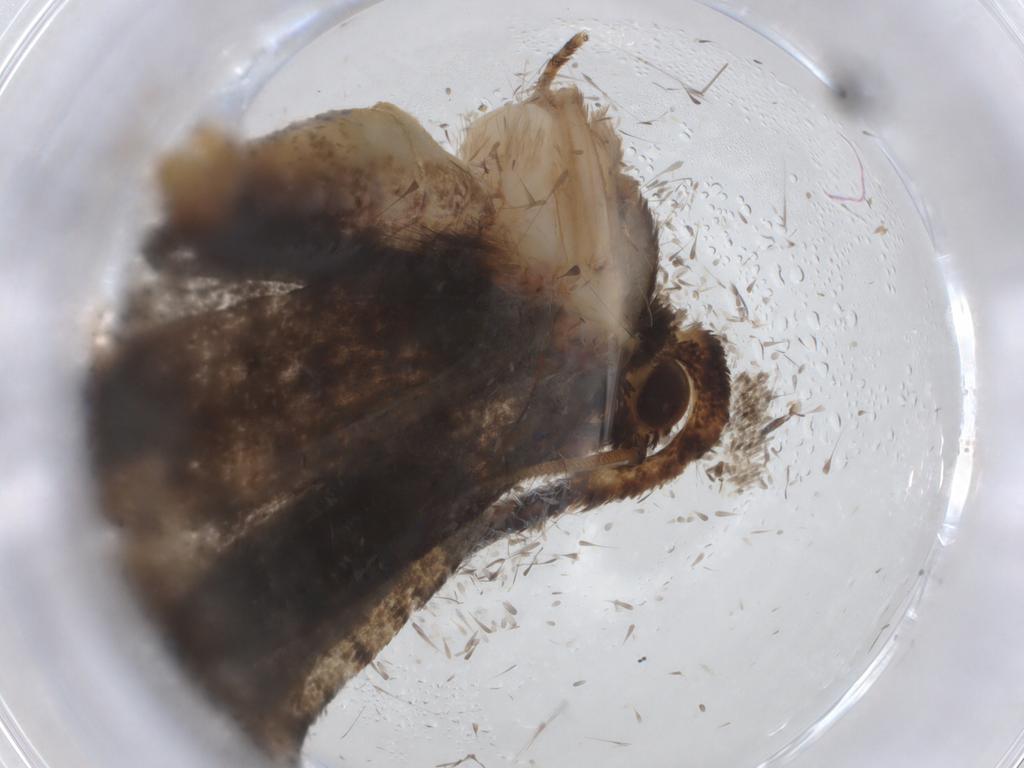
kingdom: Animalia
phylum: Arthropoda
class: Insecta
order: Lepidoptera
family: Tineidae
